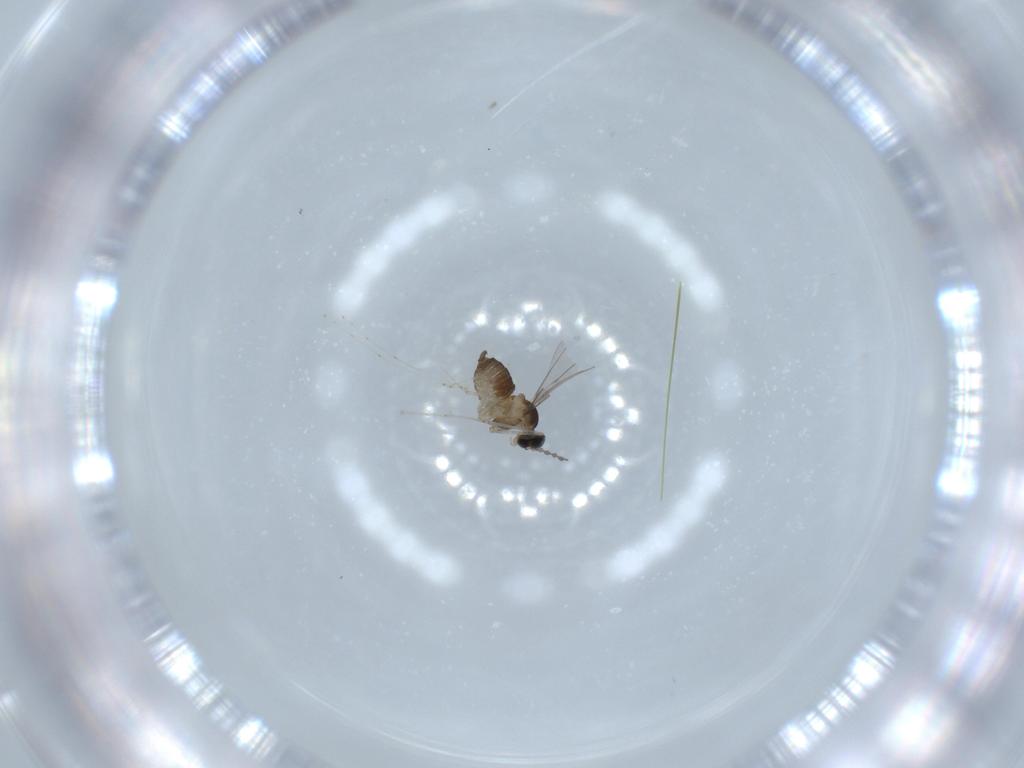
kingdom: Animalia
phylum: Arthropoda
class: Insecta
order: Diptera
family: Cecidomyiidae
